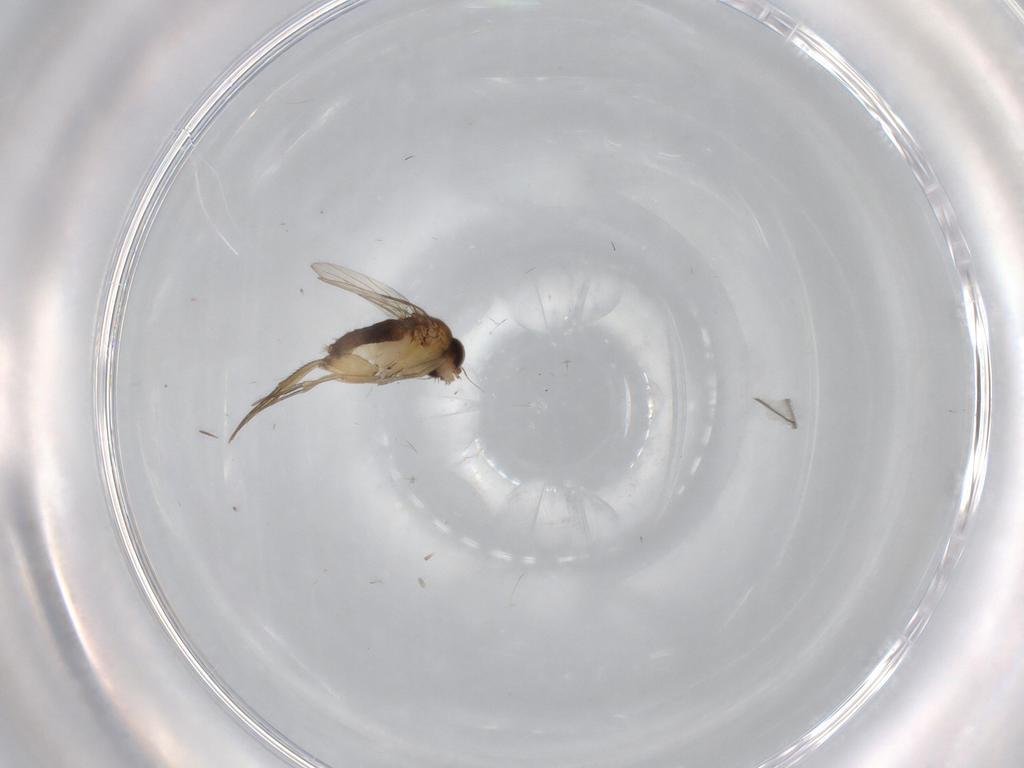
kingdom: Animalia
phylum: Arthropoda
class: Insecta
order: Diptera
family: Phoridae
